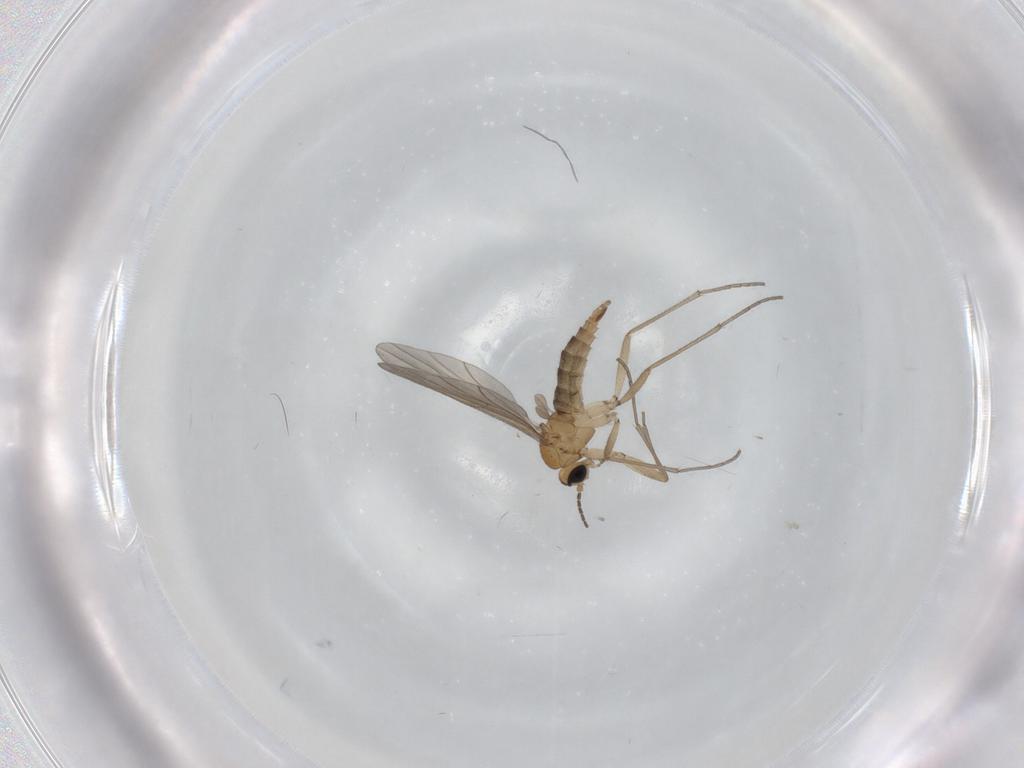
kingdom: Animalia
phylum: Arthropoda
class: Insecta
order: Diptera
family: Sciaridae
